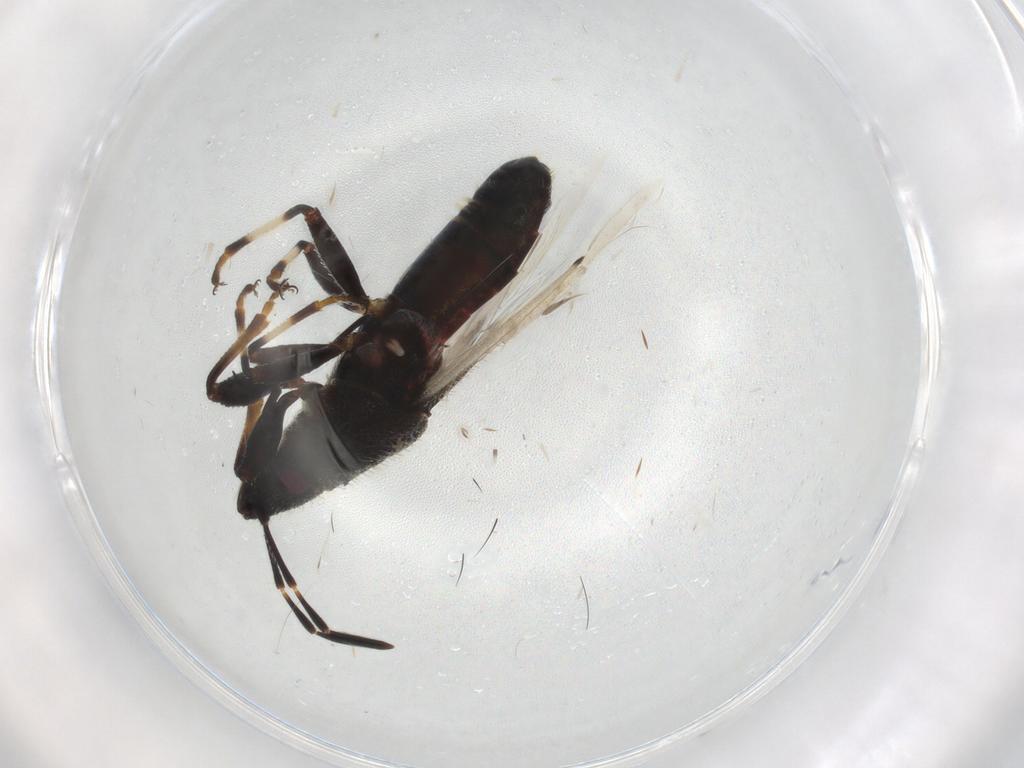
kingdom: Animalia
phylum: Arthropoda
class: Insecta
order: Hemiptera
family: Oxycarenidae
